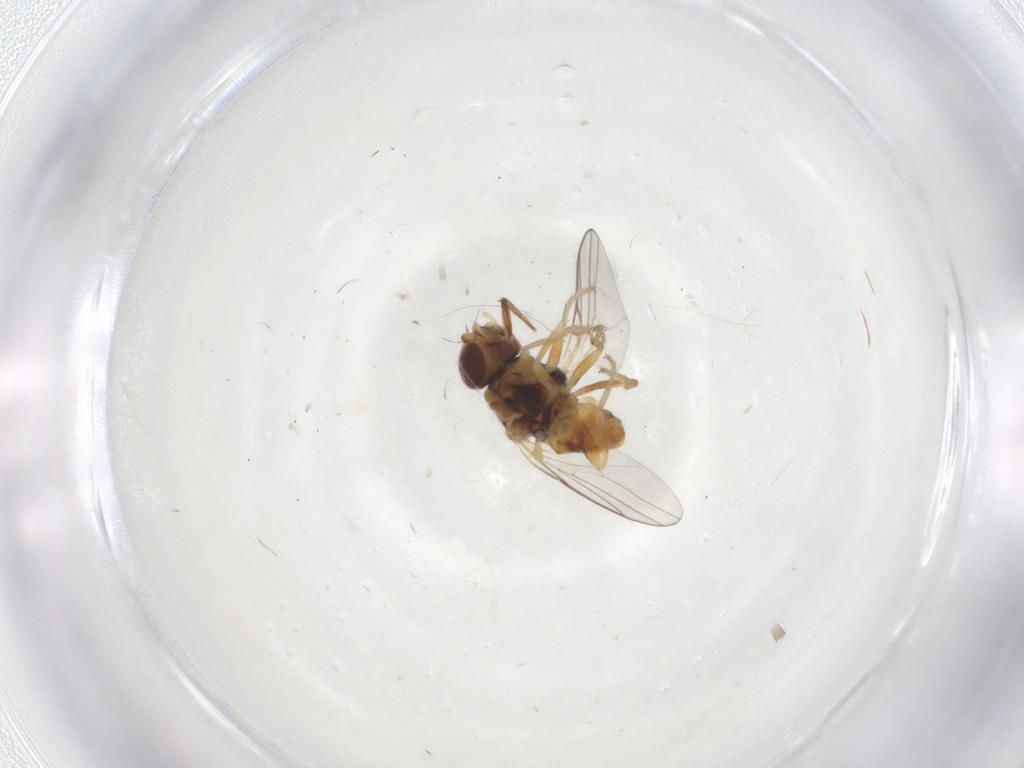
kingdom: Animalia
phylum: Arthropoda
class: Insecta
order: Diptera
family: Chloropidae
